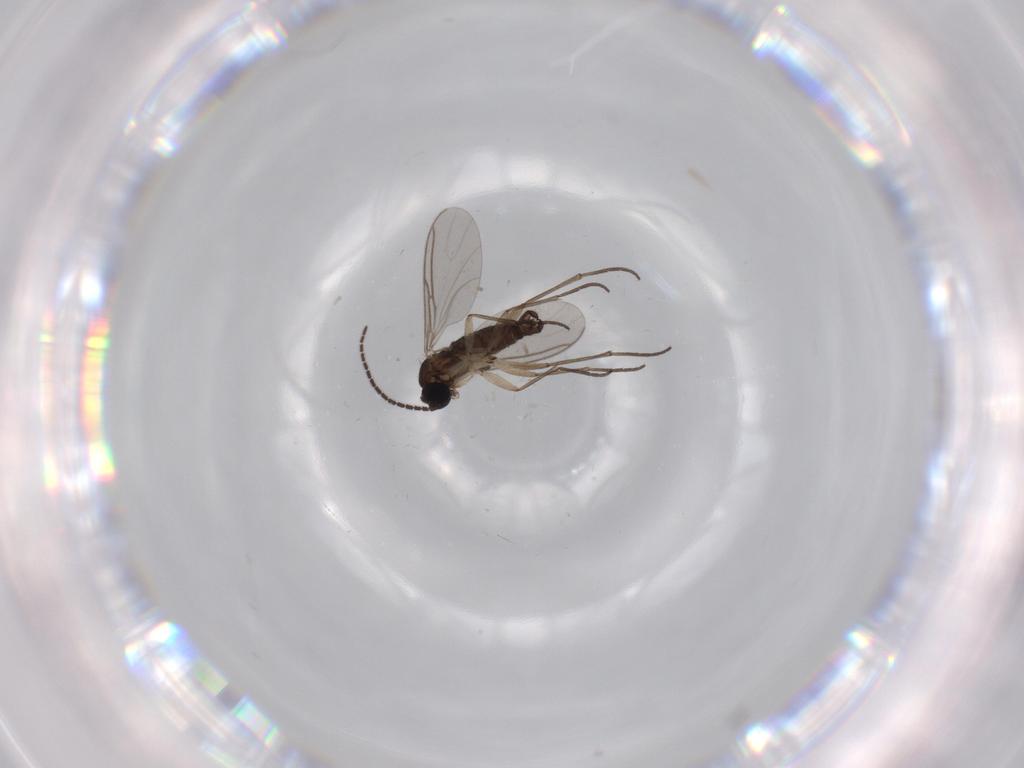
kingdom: Animalia
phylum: Arthropoda
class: Insecta
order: Diptera
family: Sciaridae
